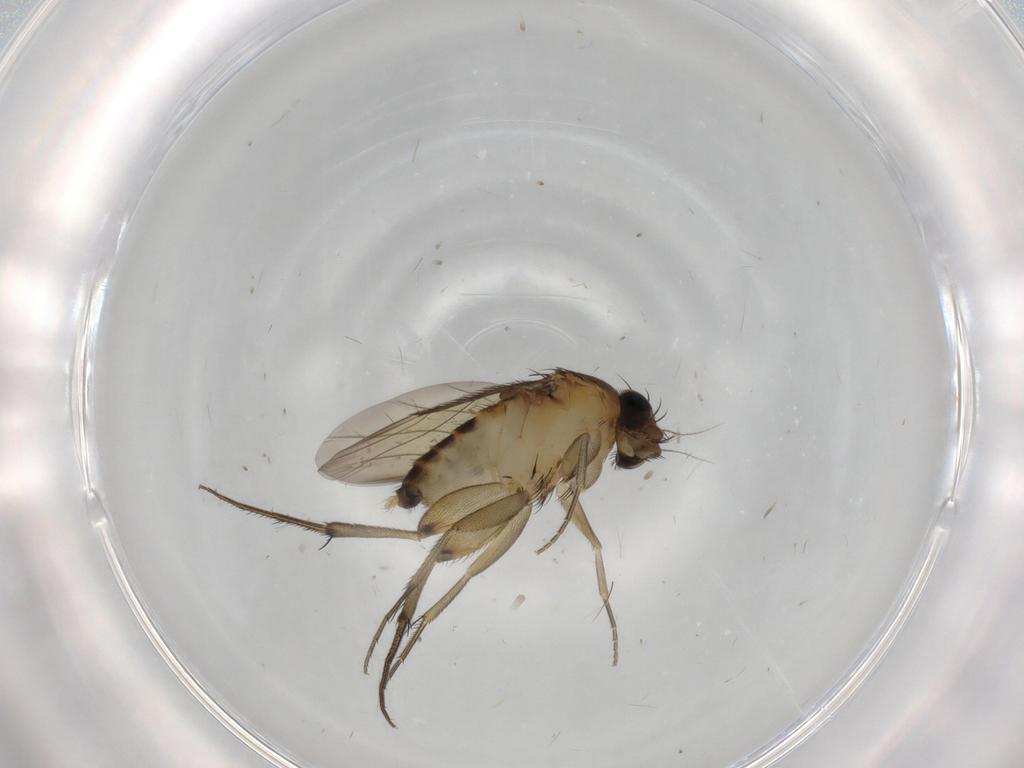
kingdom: Animalia
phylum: Arthropoda
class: Insecta
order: Diptera
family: Phoridae
